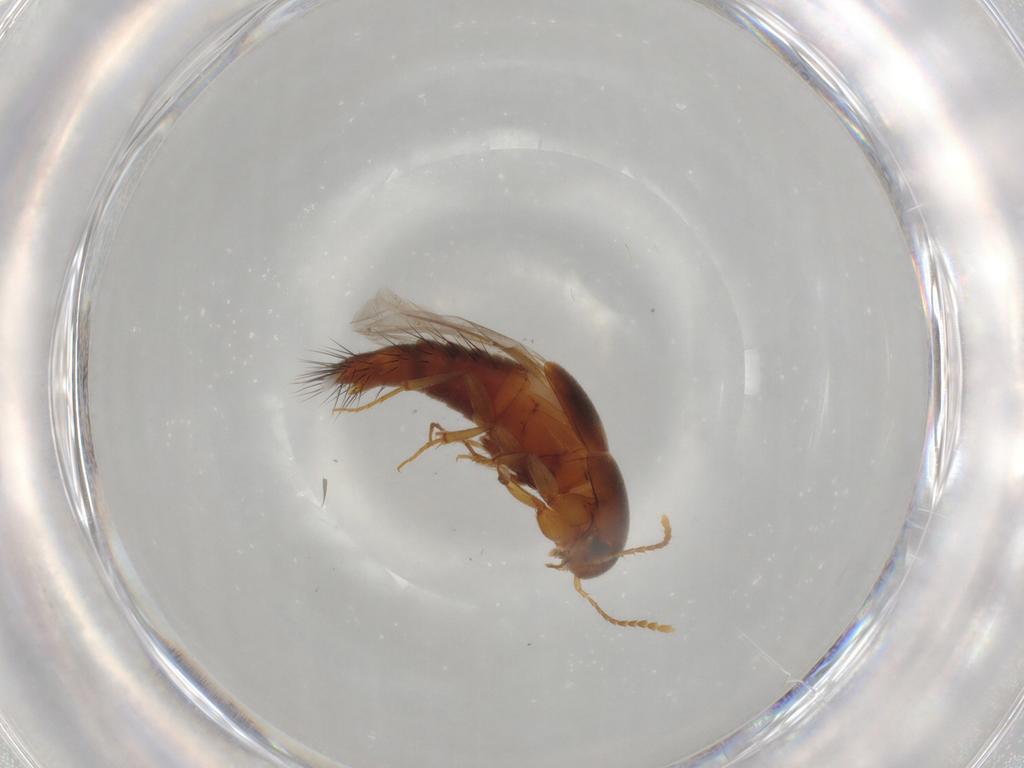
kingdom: Animalia
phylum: Arthropoda
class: Insecta
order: Coleoptera
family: Staphylinidae
